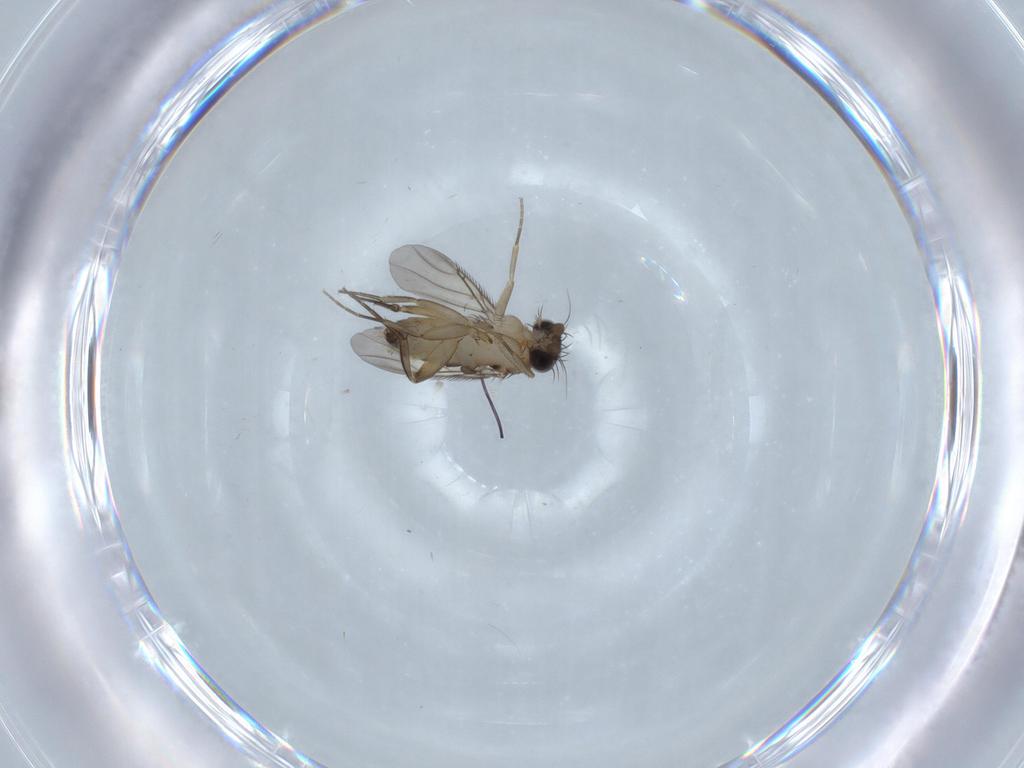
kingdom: Animalia
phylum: Arthropoda
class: Insecta
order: Diptera
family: Phoridae
